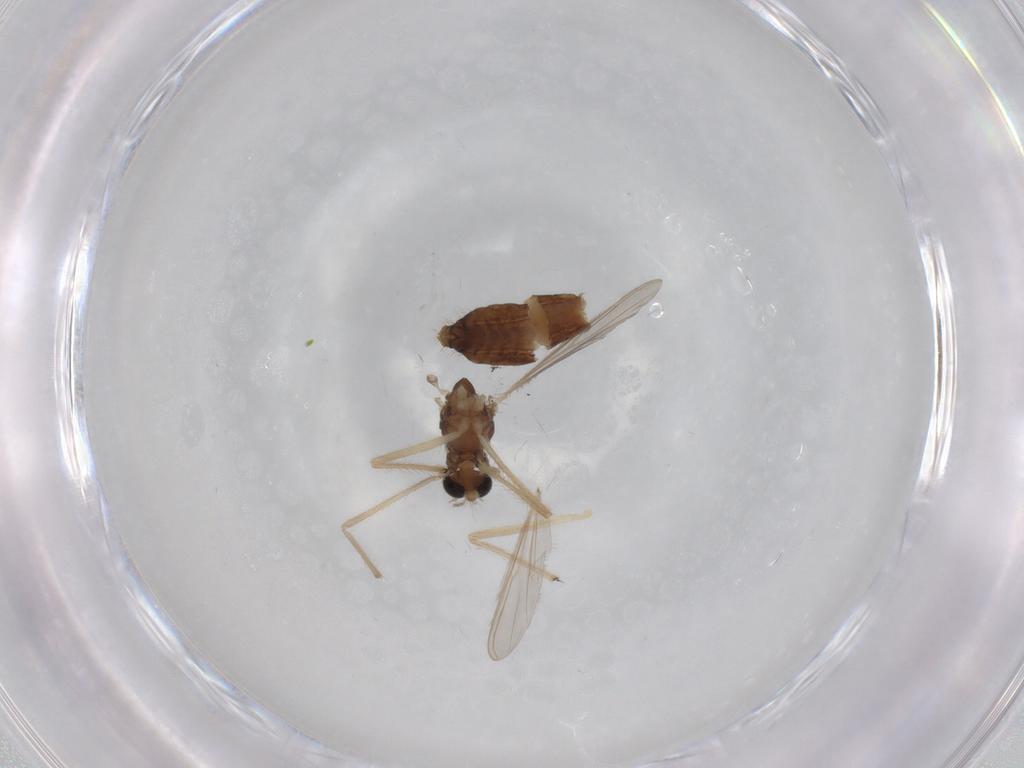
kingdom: Animalia
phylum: Arthropoda
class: Insecta
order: Diptera
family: Chironomidae
